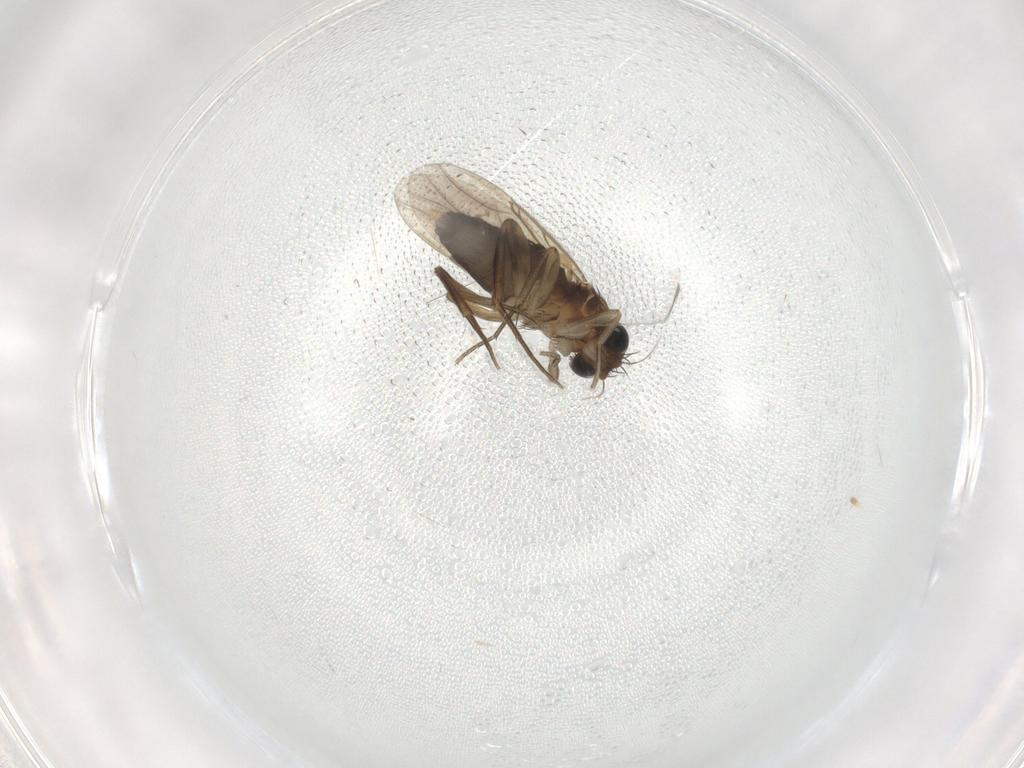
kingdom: Animalia
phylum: Arthropoda
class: Insecta
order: Diptera
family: Phoridae
